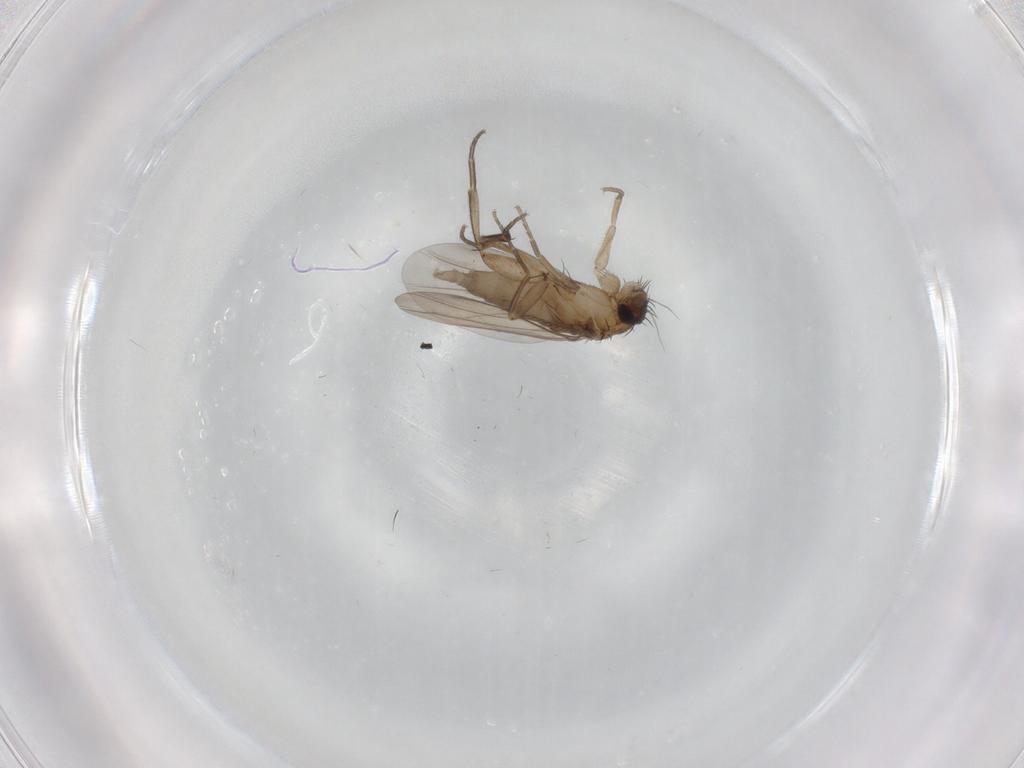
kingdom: Animalia
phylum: Arthropoda
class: Insecta
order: Diptera
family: Phoridae
